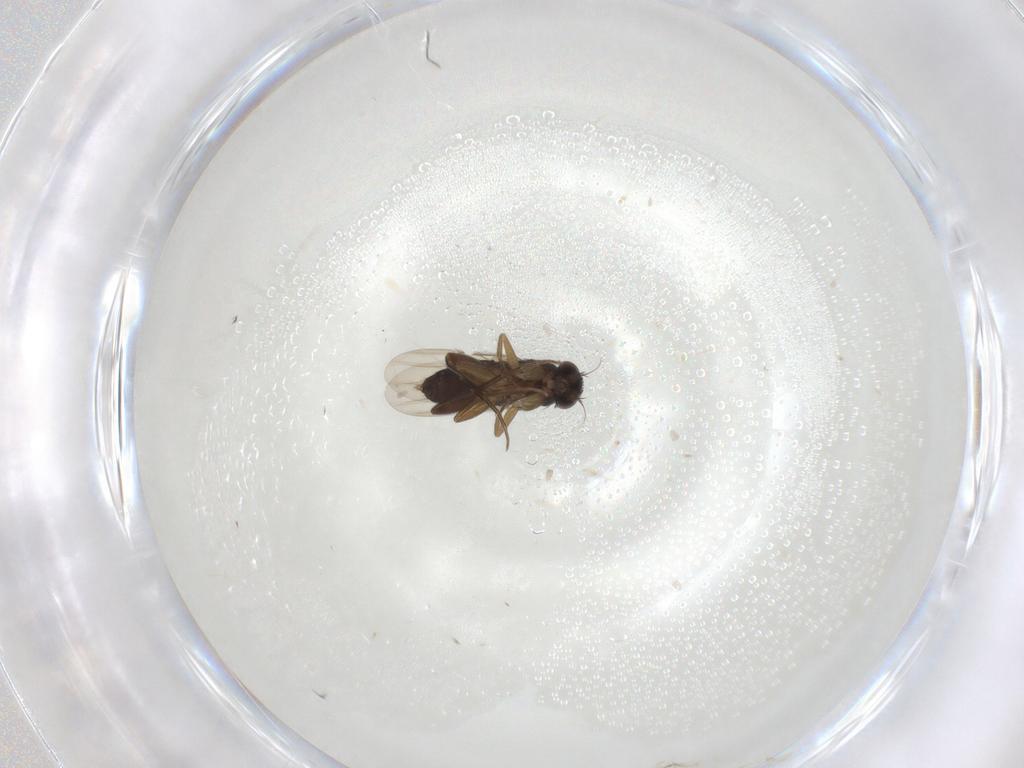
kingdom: Animalia
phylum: Arthropoda
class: Insecta
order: Diptera
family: Phoridae
